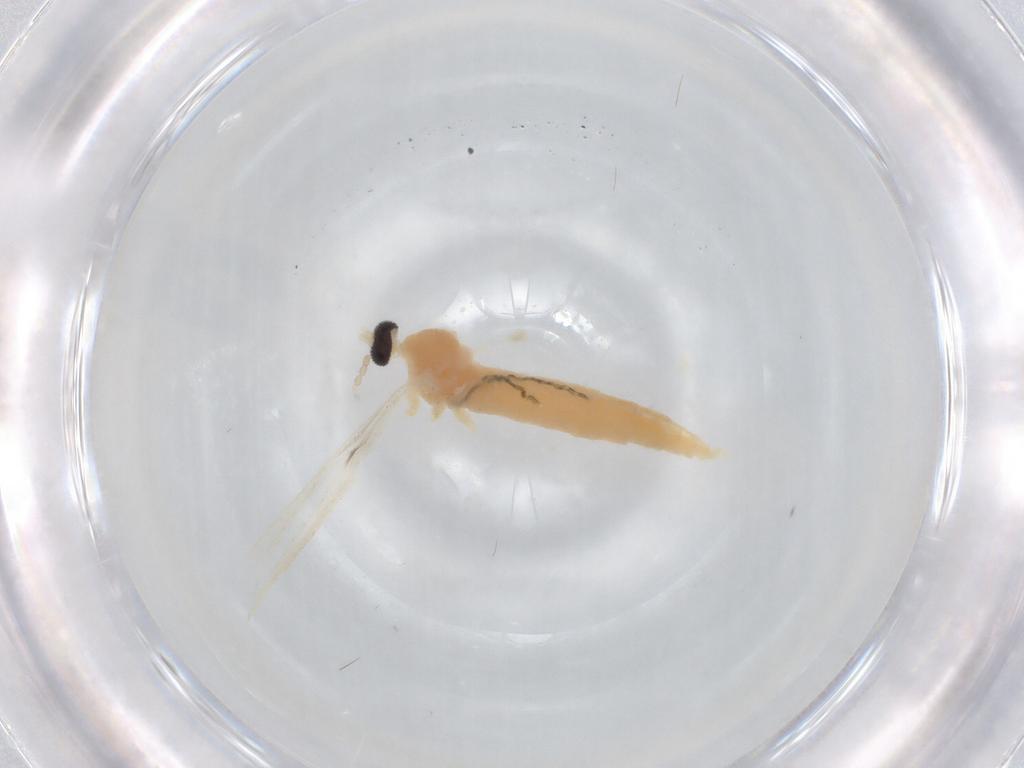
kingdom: Animalia
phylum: Arthropoda
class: Insecta
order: Diptera
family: Cecidomyiidae
